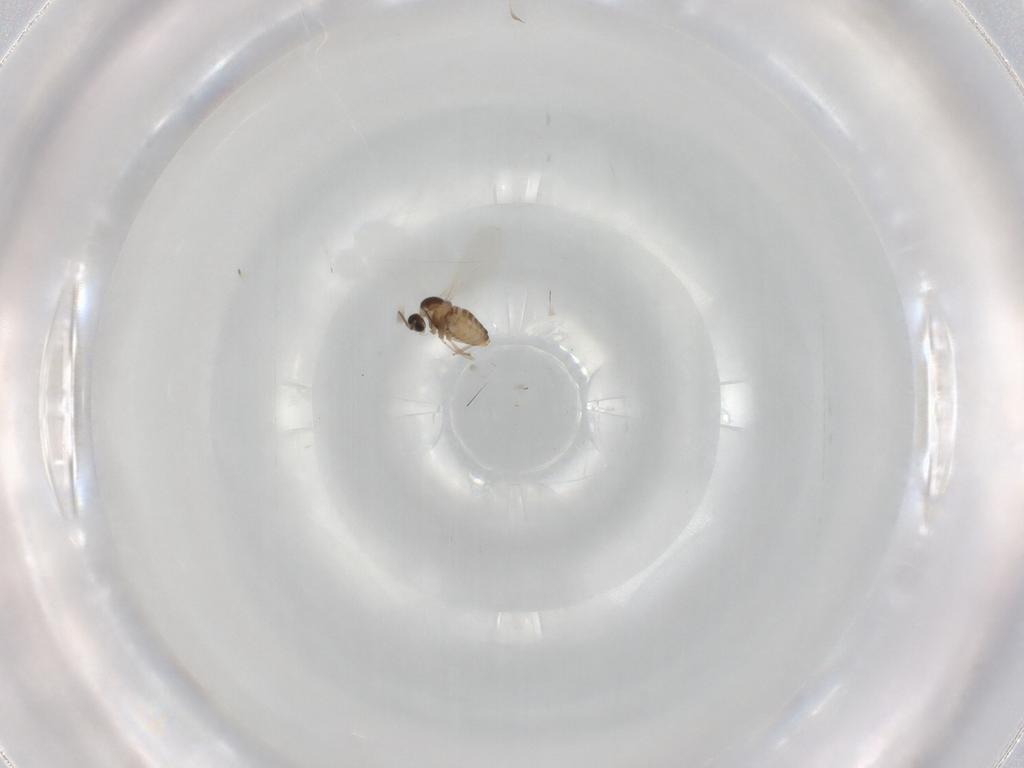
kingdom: Animalia
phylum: Arthropoda
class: Insecta
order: Diptera
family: Cecidomyiidae
